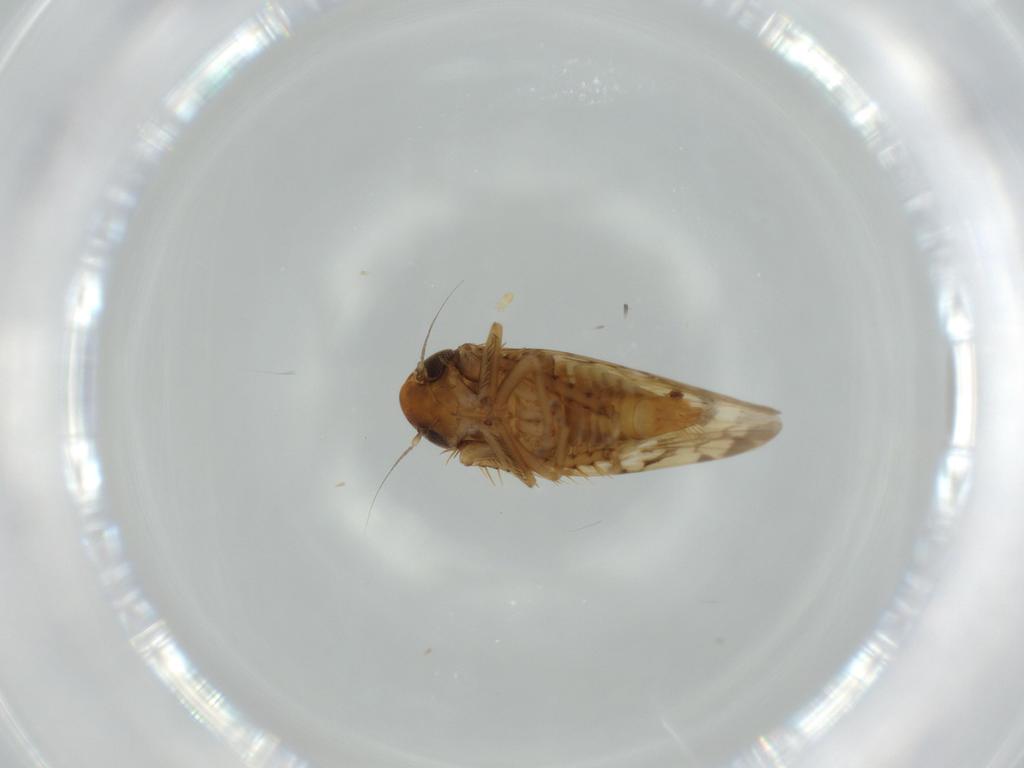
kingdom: Animalia
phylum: Arthropoda
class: Insecta
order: Hemiptera
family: Cicadellidae
